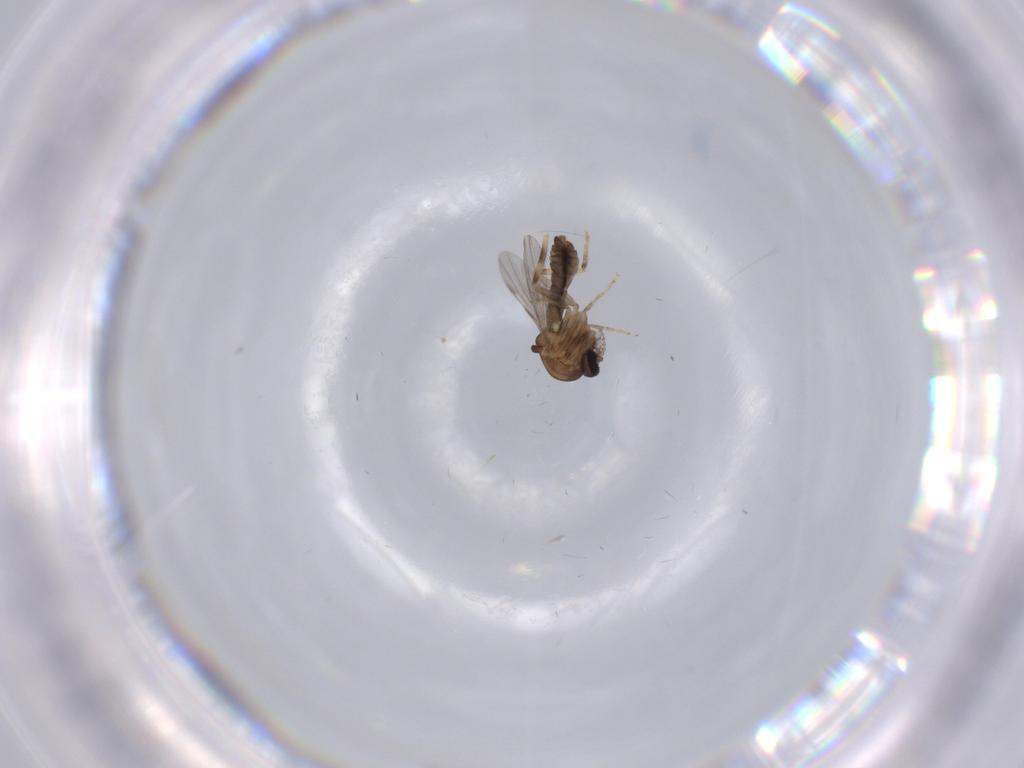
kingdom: Animalia
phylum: Arthropoda
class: Insecta
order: Diptera
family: Ceratopogonidae
